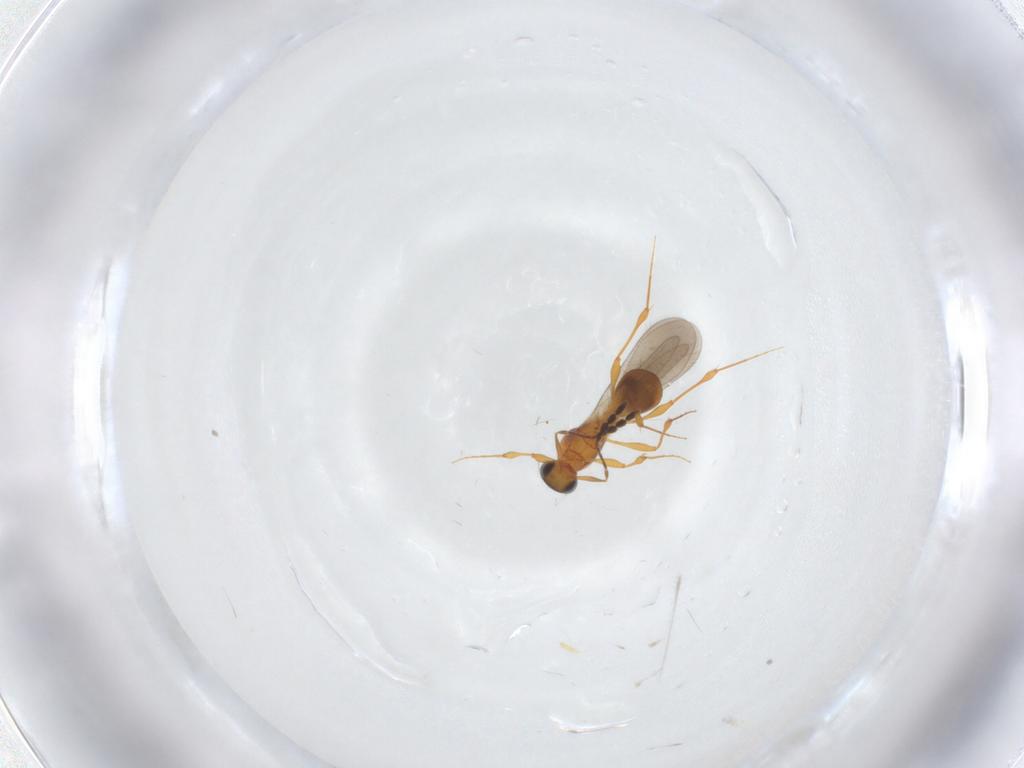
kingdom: Animalia
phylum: Arthropoda
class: Insecta
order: Hymenoptera
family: Platygastridae
